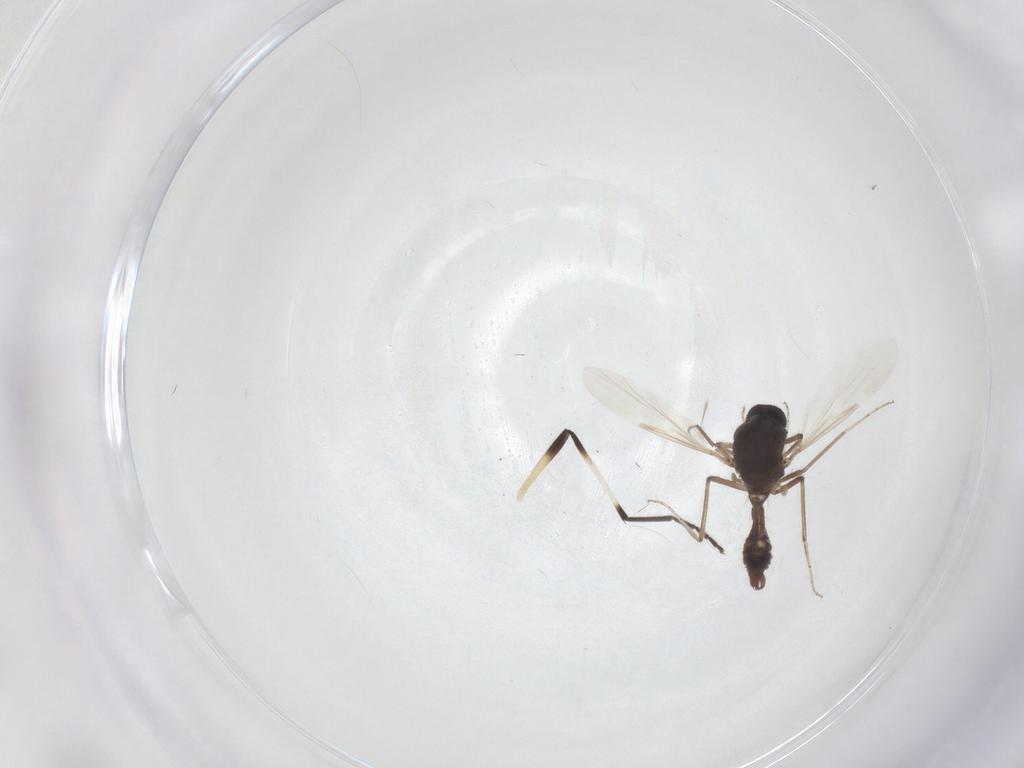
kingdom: Animalia
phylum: Arthropoda
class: Insecta
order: Diptera
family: Chironomidae
